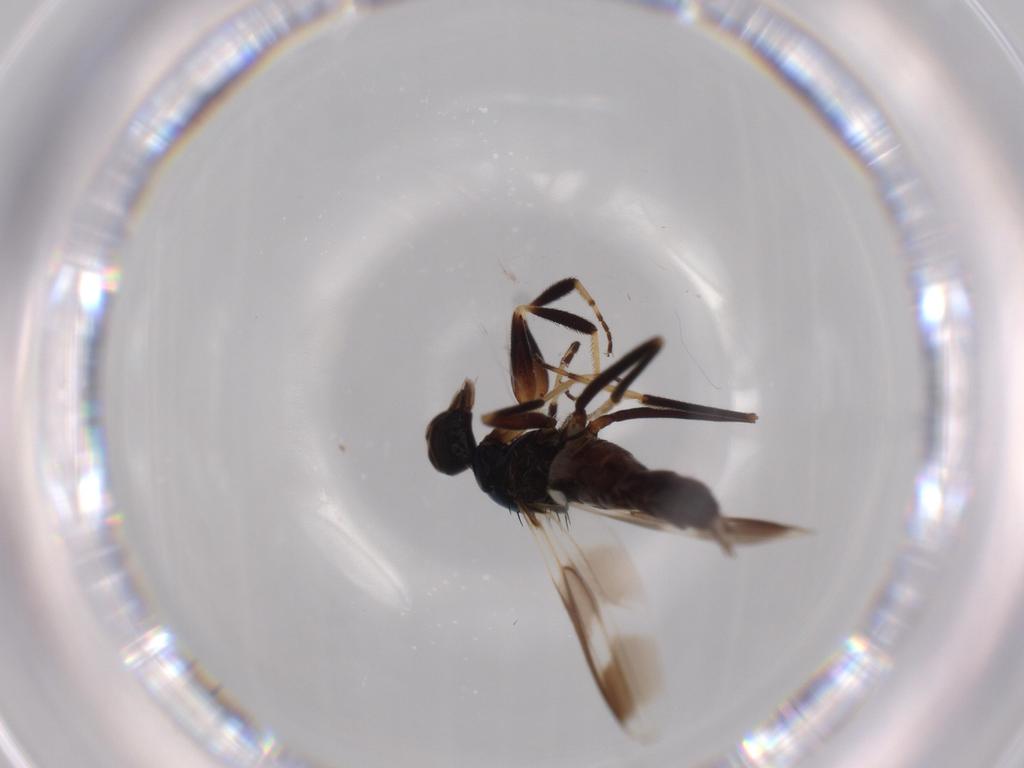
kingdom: Animalia
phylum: Arthropoda
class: Insecta
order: Diptera
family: Hybotidae
